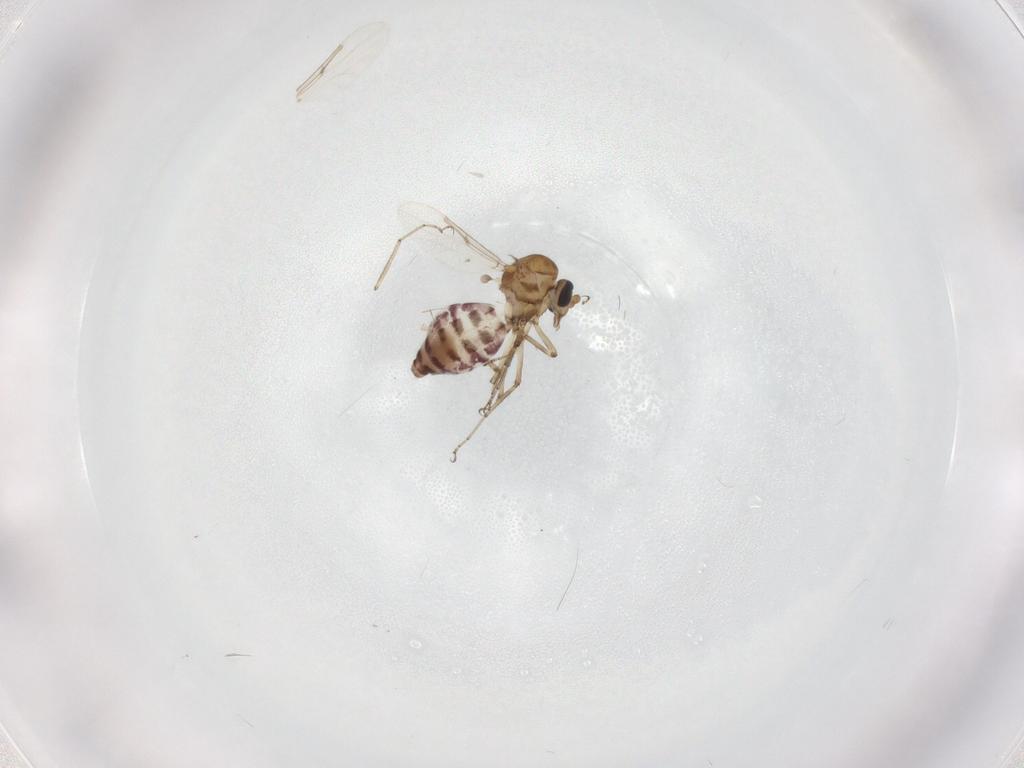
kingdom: Animalia
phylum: Arthropoda
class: Insecta
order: Diptera
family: Ceratopogonidae
